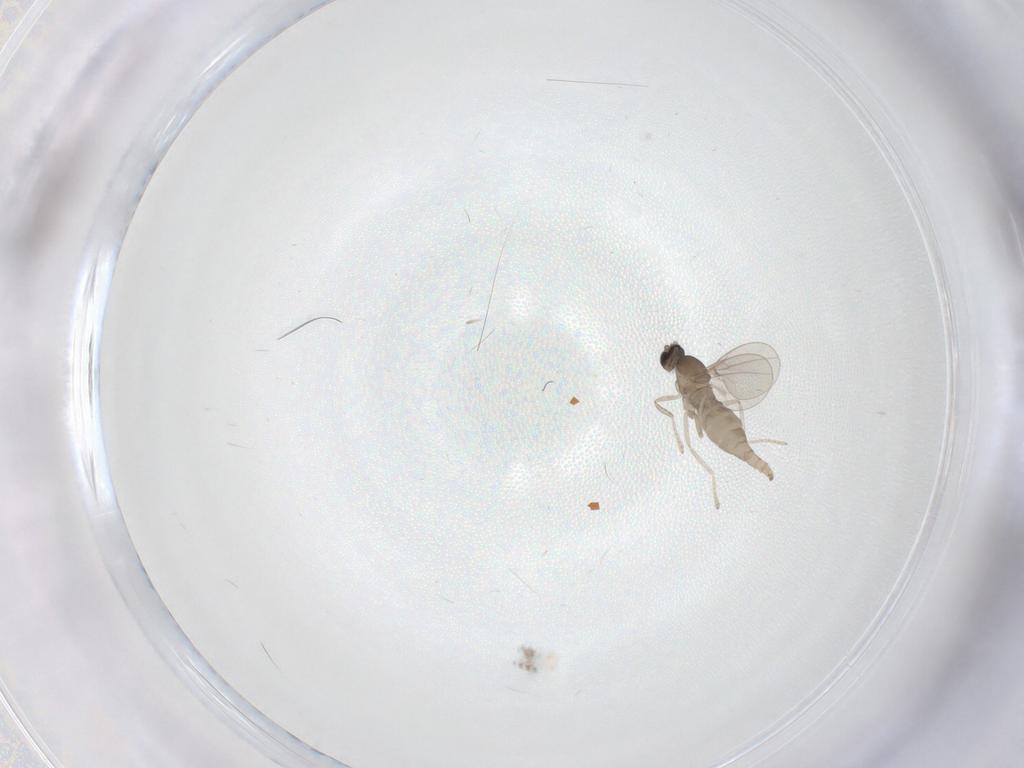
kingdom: Animalia
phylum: Arthropoda
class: Insecta
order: Diptera
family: Cecidomyiidae
